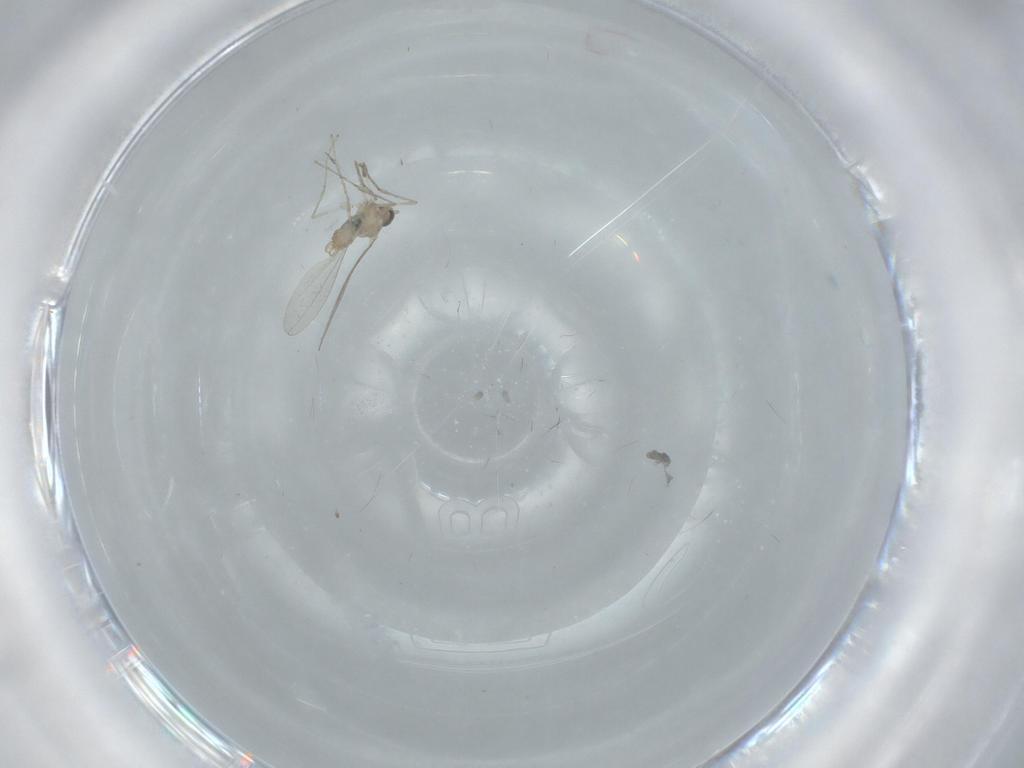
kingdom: Animalia
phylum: Arthropoda
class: Insecta
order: Diptera
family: Cecidomyiidae
